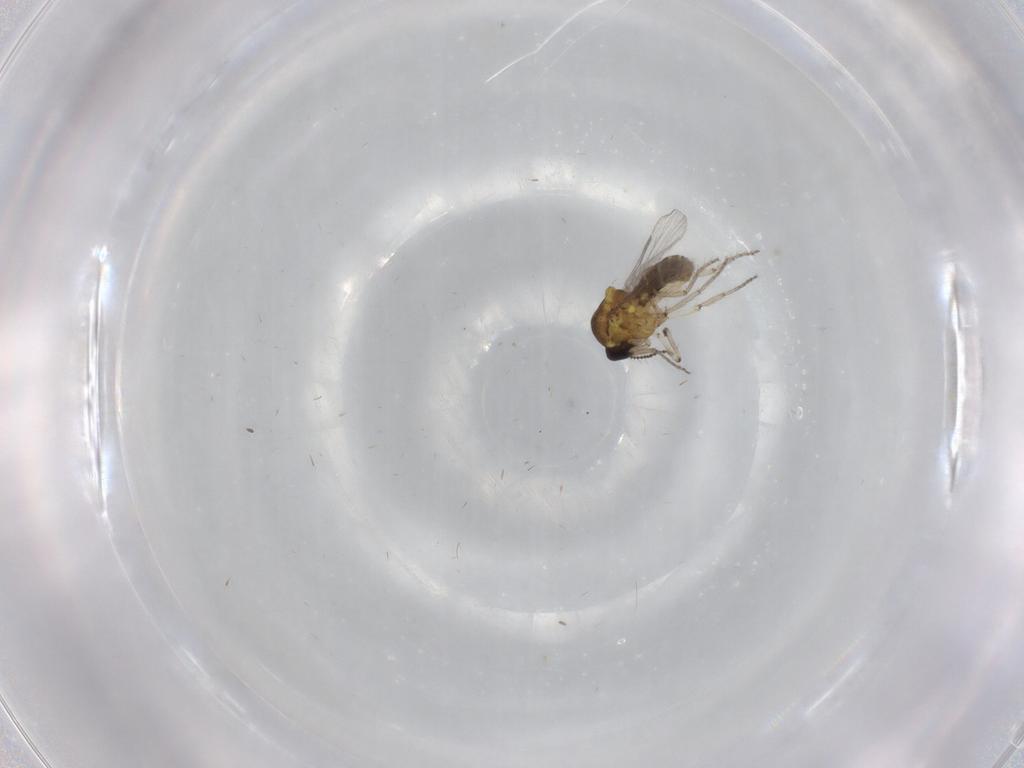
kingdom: Animalia
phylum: Arthropoda
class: Insecta
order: Diptera
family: Ceratopogonidae
